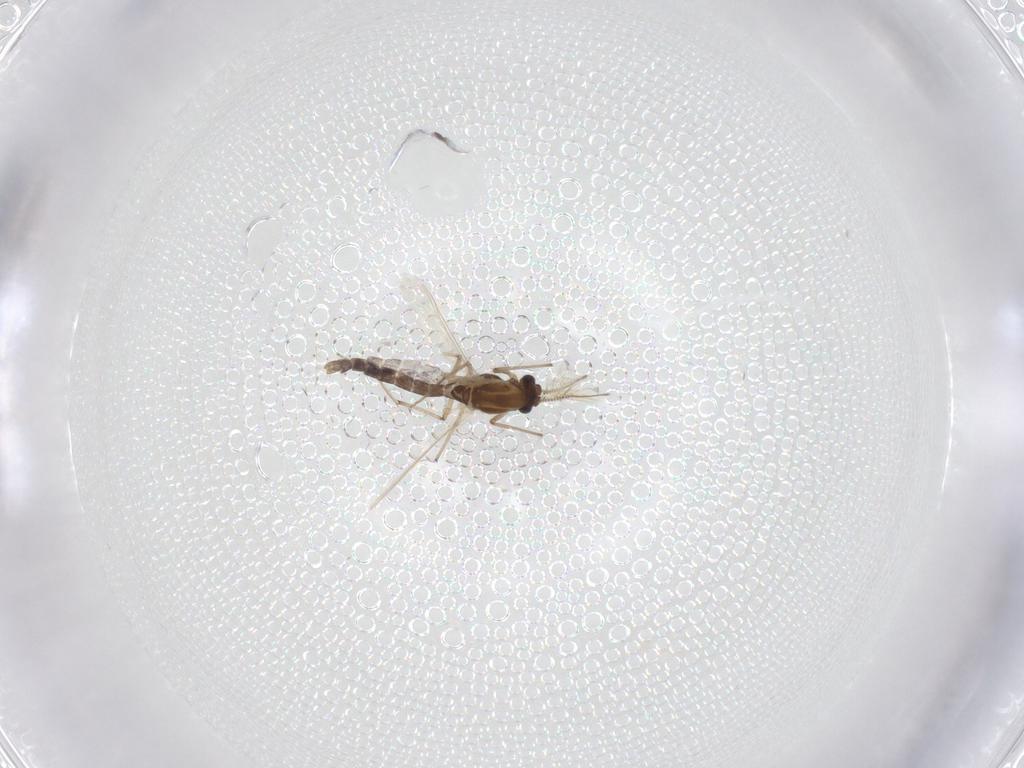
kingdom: Animalia
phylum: Arthropoda
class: Insecta
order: Diptera
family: Chironomidae
